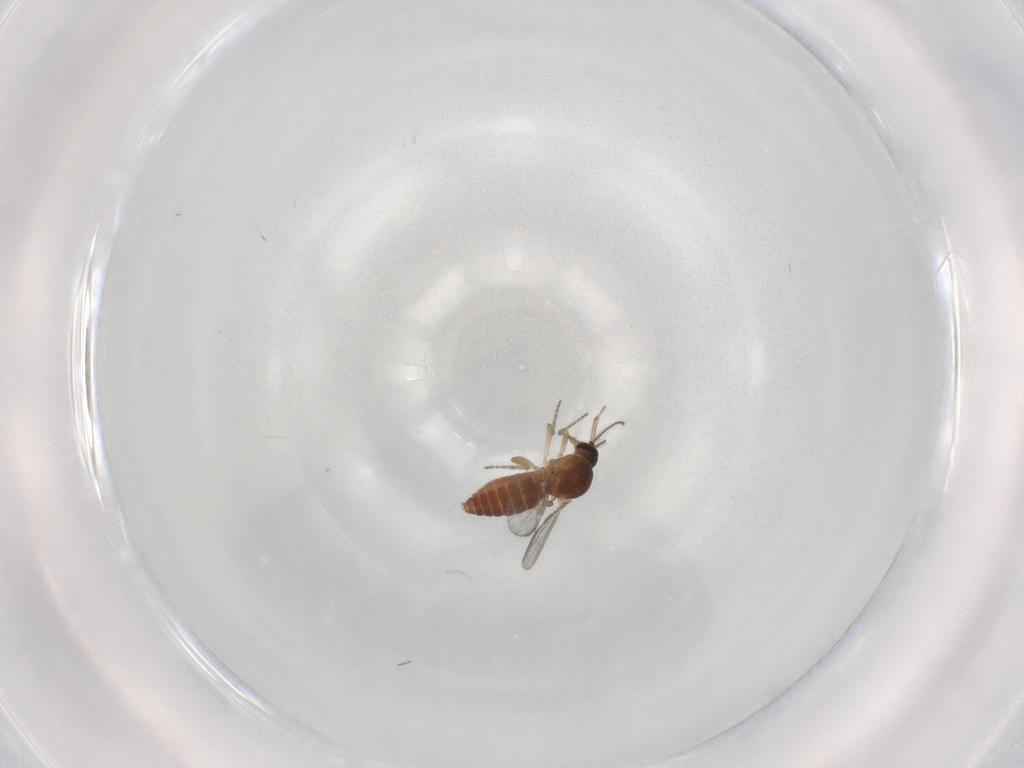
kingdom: Animalia
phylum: Arthropoda
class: Insecta
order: Diptera
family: Ceratopogonidae
